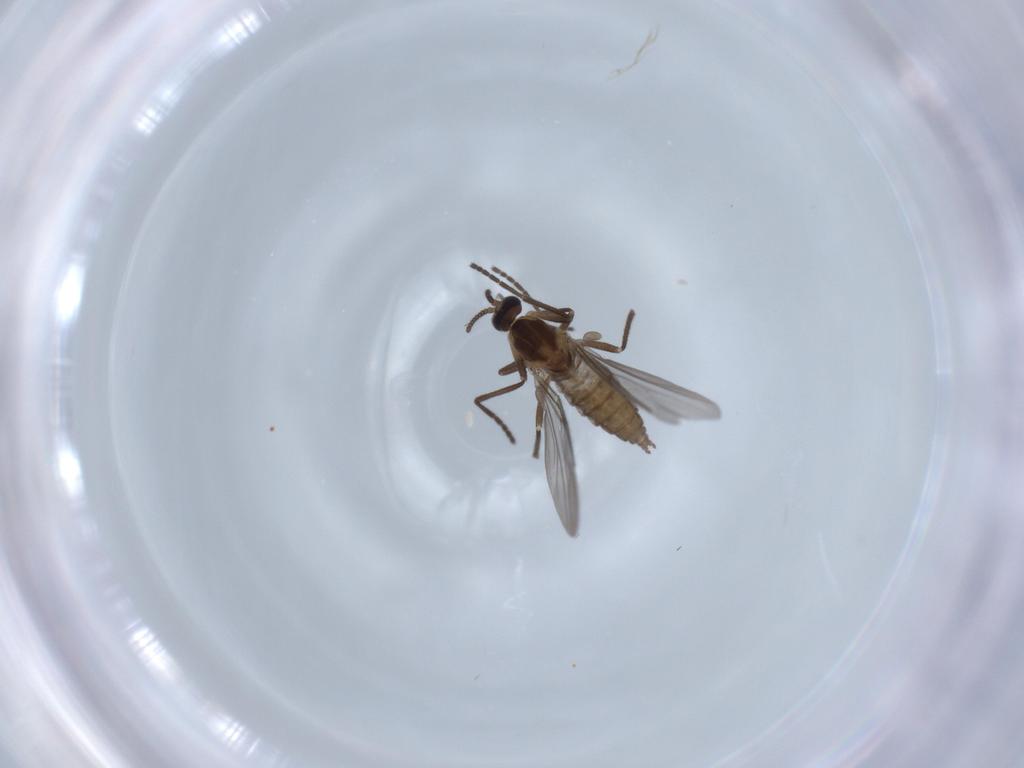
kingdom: Animalia
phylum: Arthropoda
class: Insecta
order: Diptera
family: Cecidomyiidae
